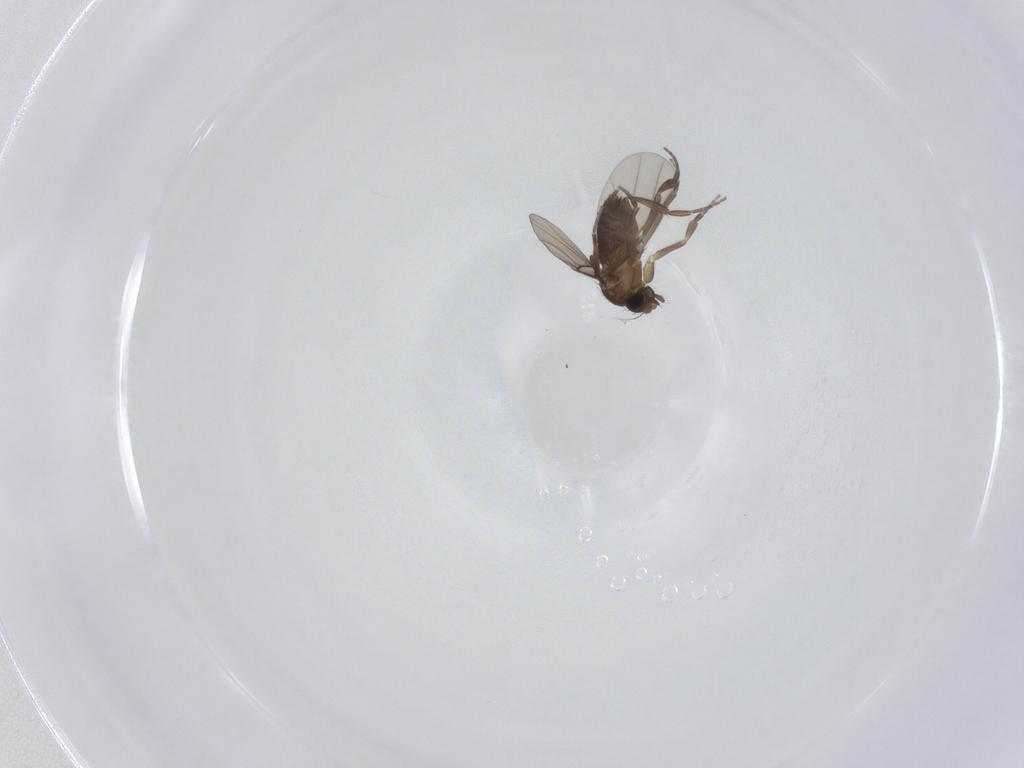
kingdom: Animalia
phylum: Arthropoda
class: Insecta
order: Diptera
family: Phoridae
